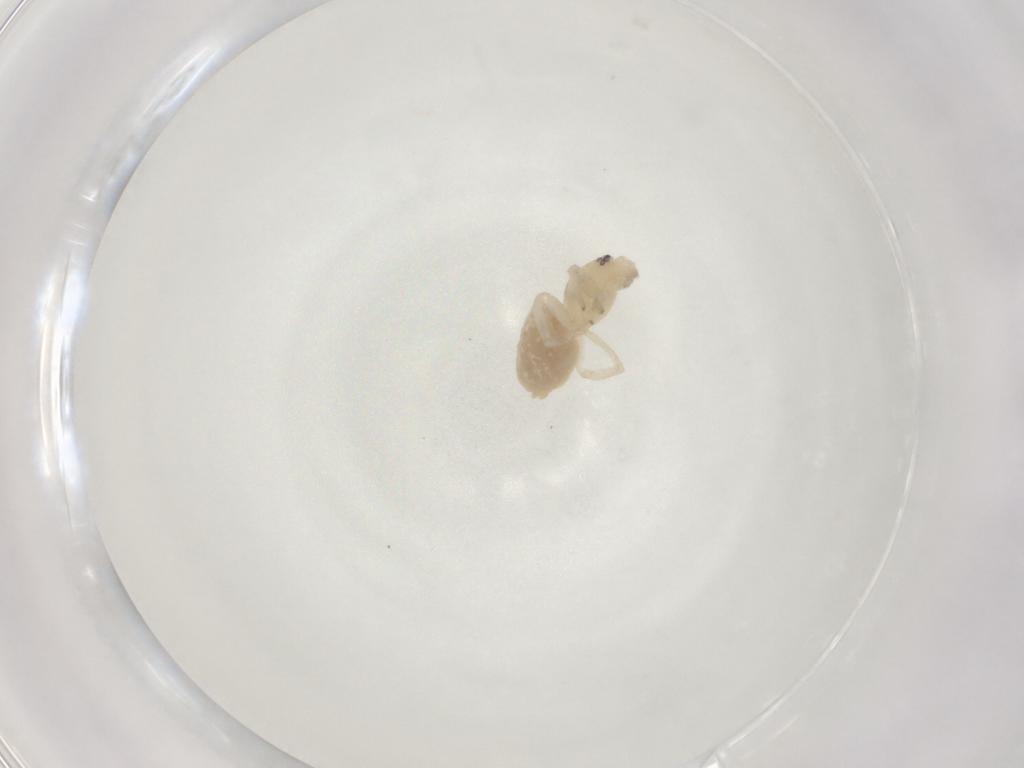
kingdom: Animalia
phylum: Arthropoda
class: Arachnida
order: Araneae
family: Cheiracanthiidae
